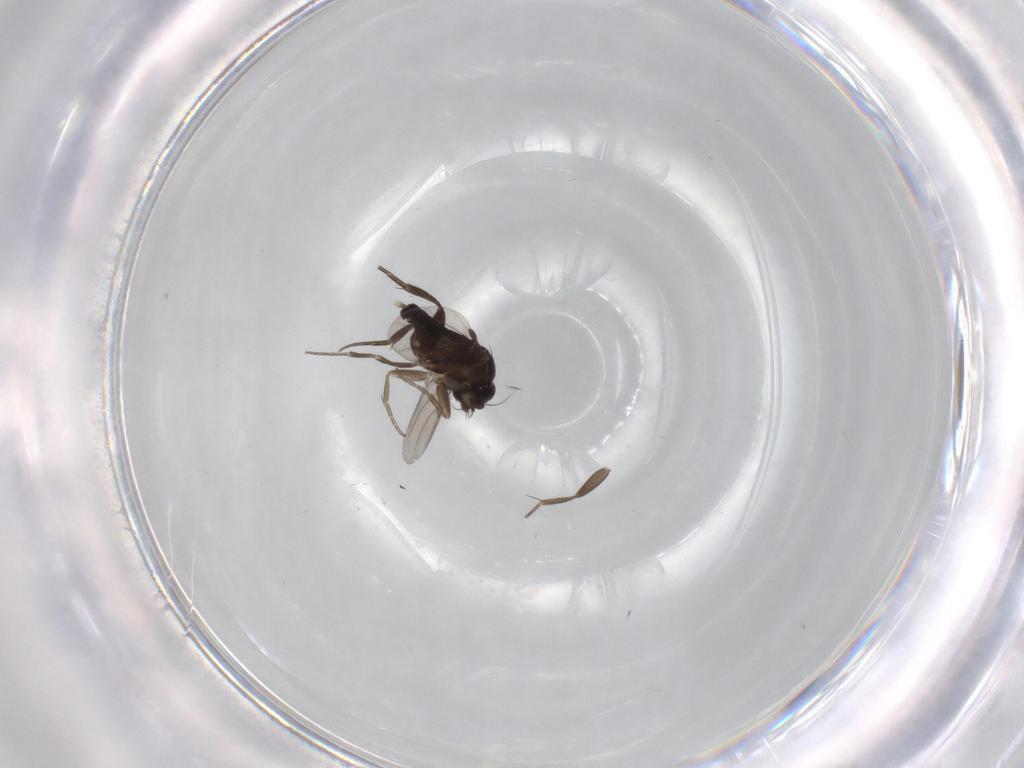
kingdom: Animalia
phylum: Arthropoda
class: Insecta
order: Diptera
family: Phoridae
